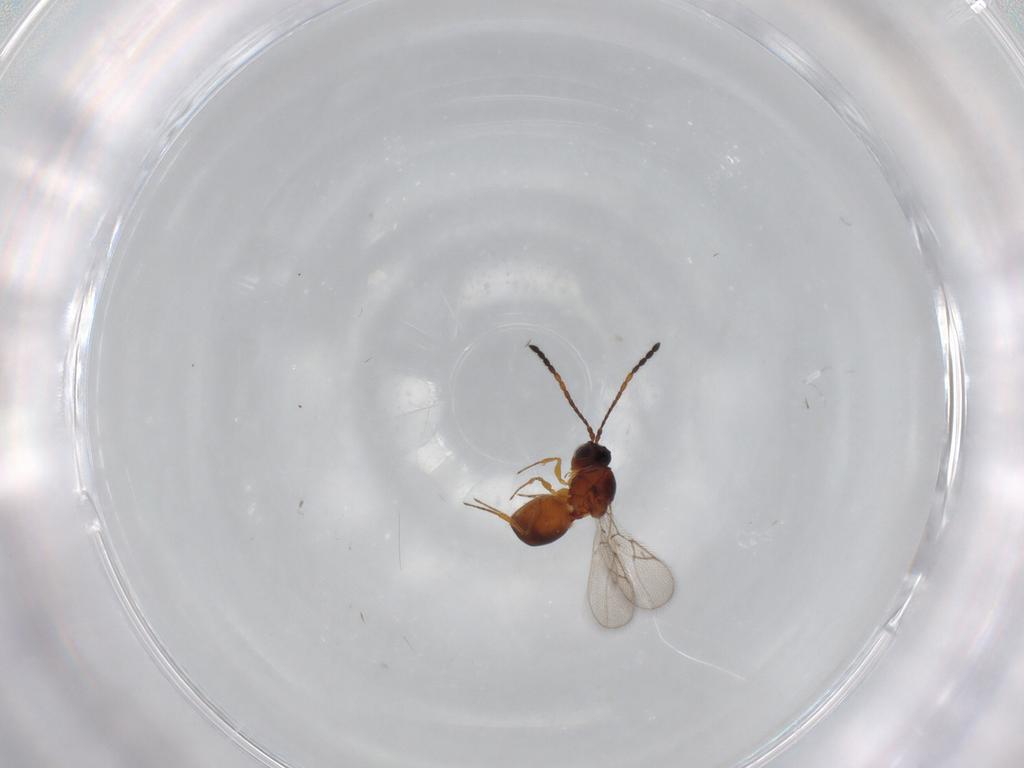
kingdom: Animalia
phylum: Arthropoda
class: Insecta
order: Hymenoptera
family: Figitidae
